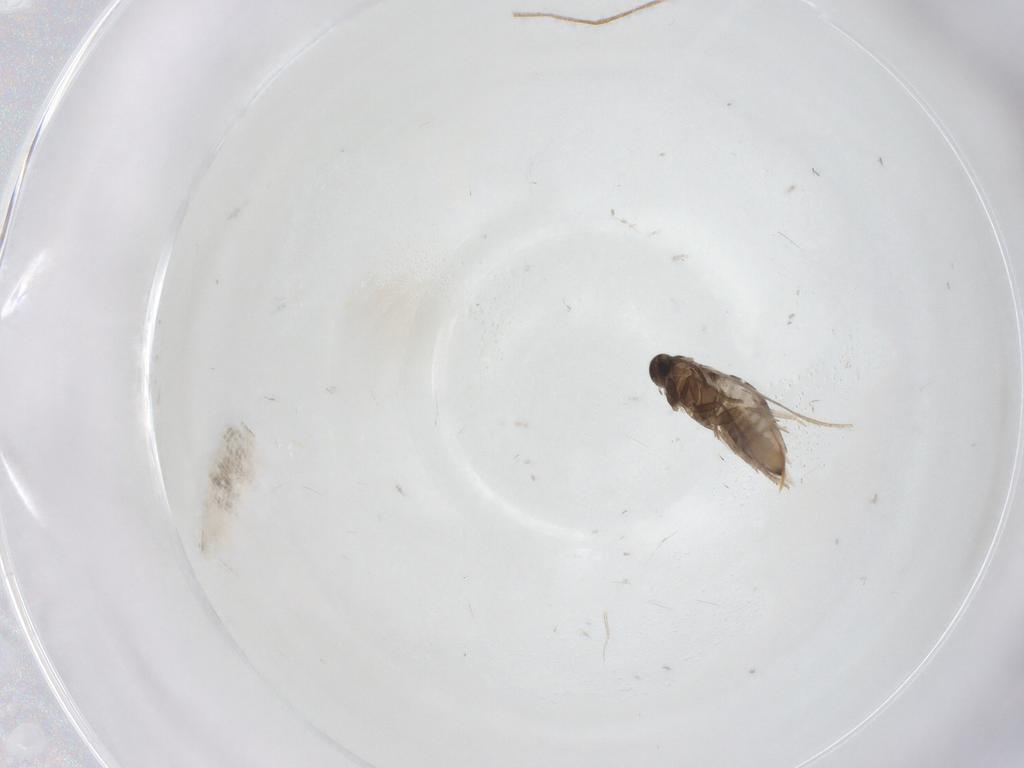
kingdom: Animalia
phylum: Arthropoda
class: Insecta
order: Lepidoptera
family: Heliozelidae
